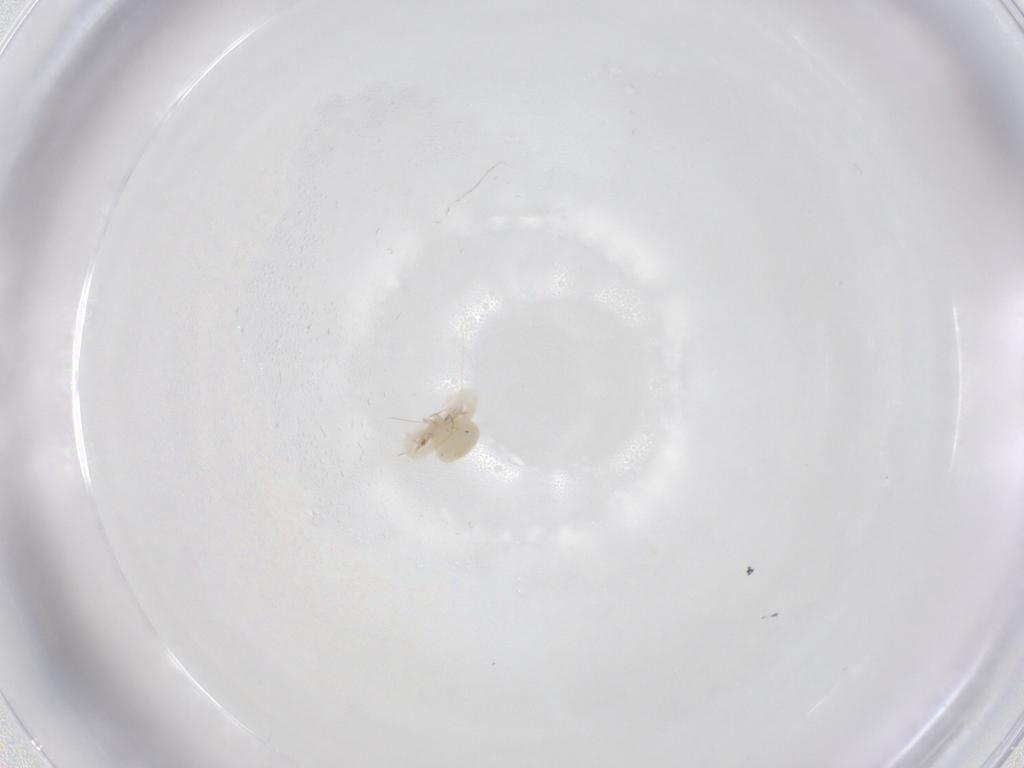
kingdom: Animalia
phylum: Arthropoda
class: Arachnida
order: Trombidiformes
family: Anystidae
